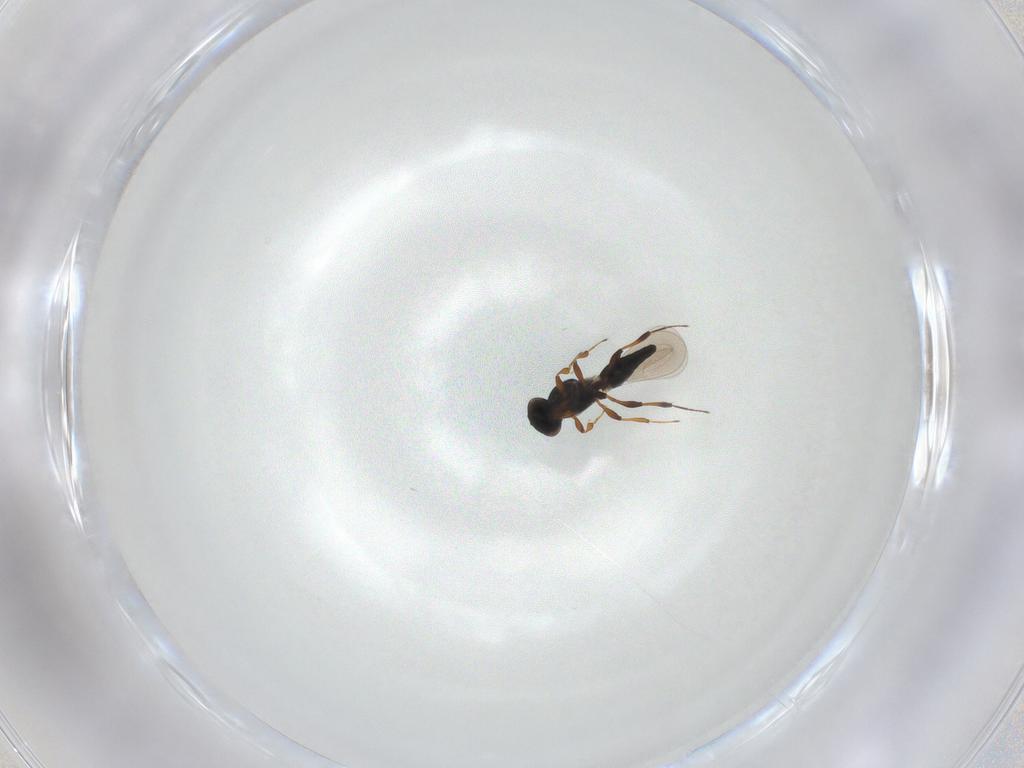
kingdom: Animalia
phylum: Arthropoda
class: Insecta
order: Hymenoptera
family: Platygastridae
